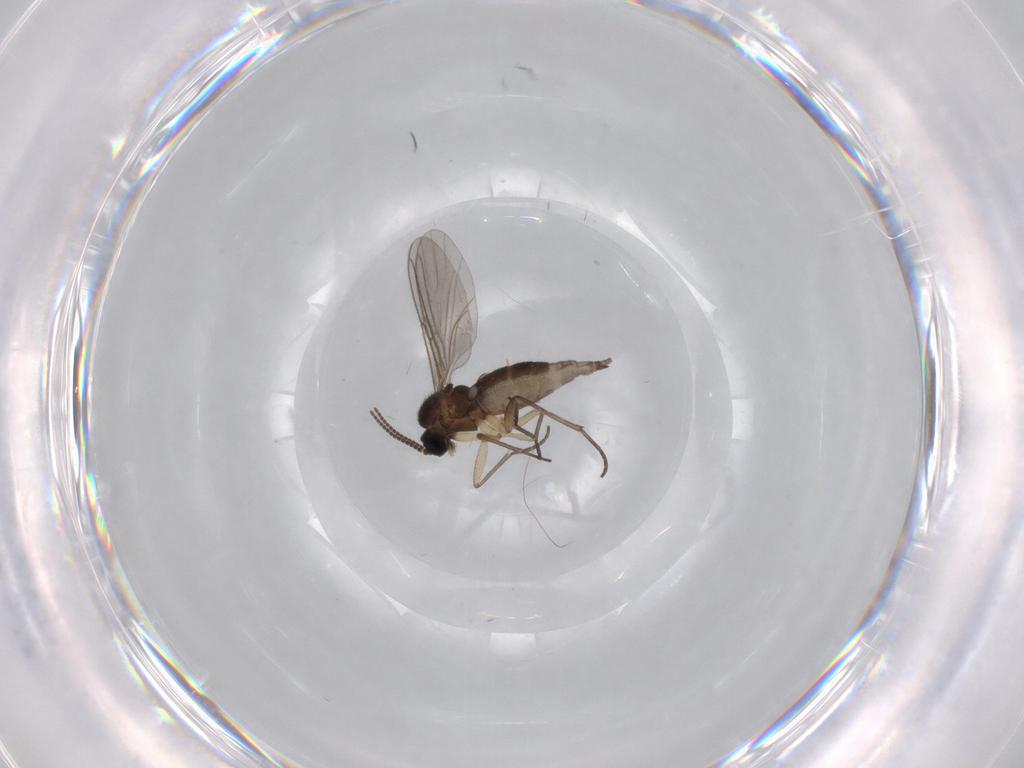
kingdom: Animalia
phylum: Arthropoda
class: Insecta
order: Diptera
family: Sciaridae
